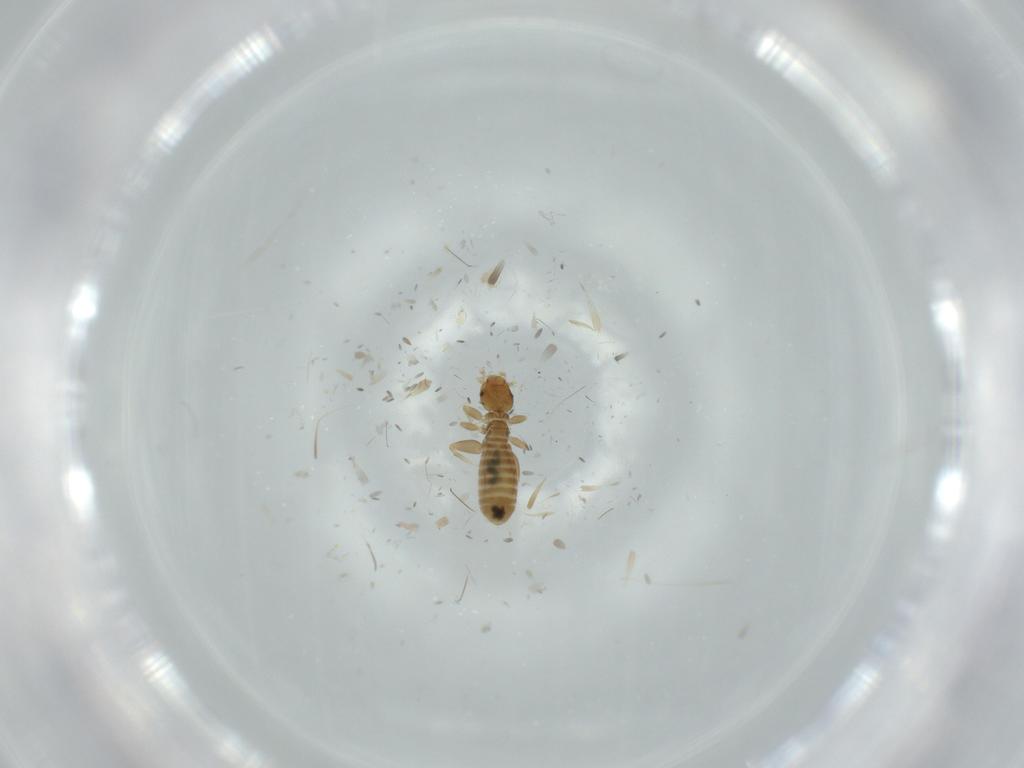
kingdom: Animalia
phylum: Arthropoda
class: Insecta
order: Psocodea
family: Liposcelididae
